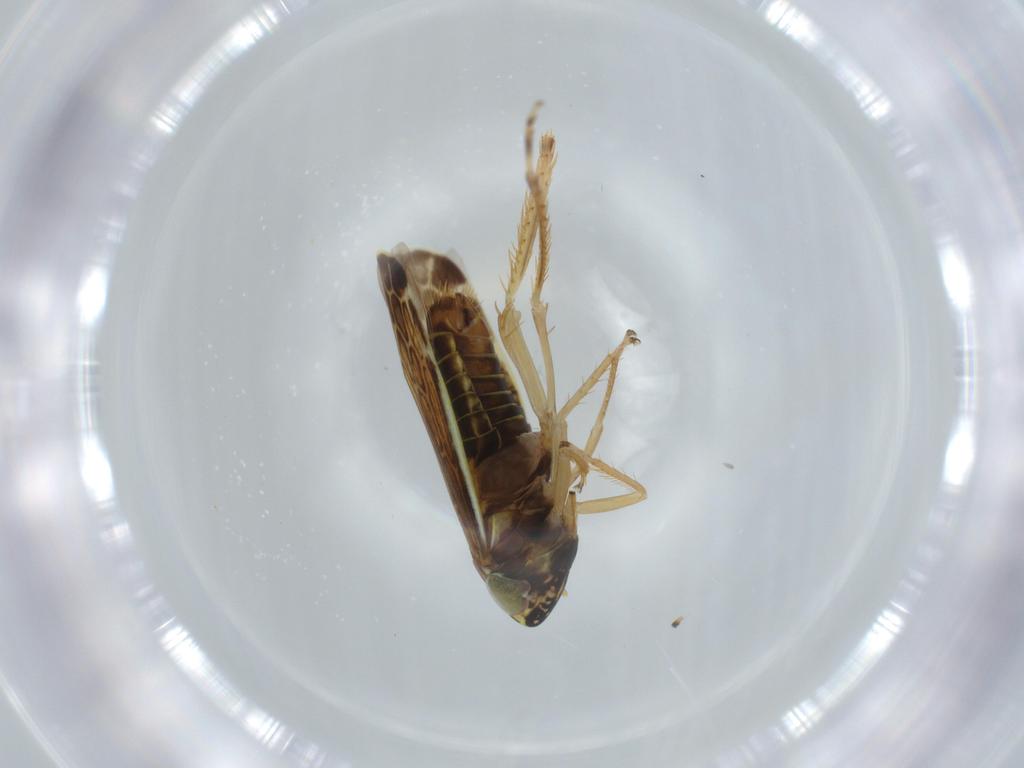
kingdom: Animalia
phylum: Arthropoda
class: Insecta
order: Hemiptera
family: Cicadellidae
